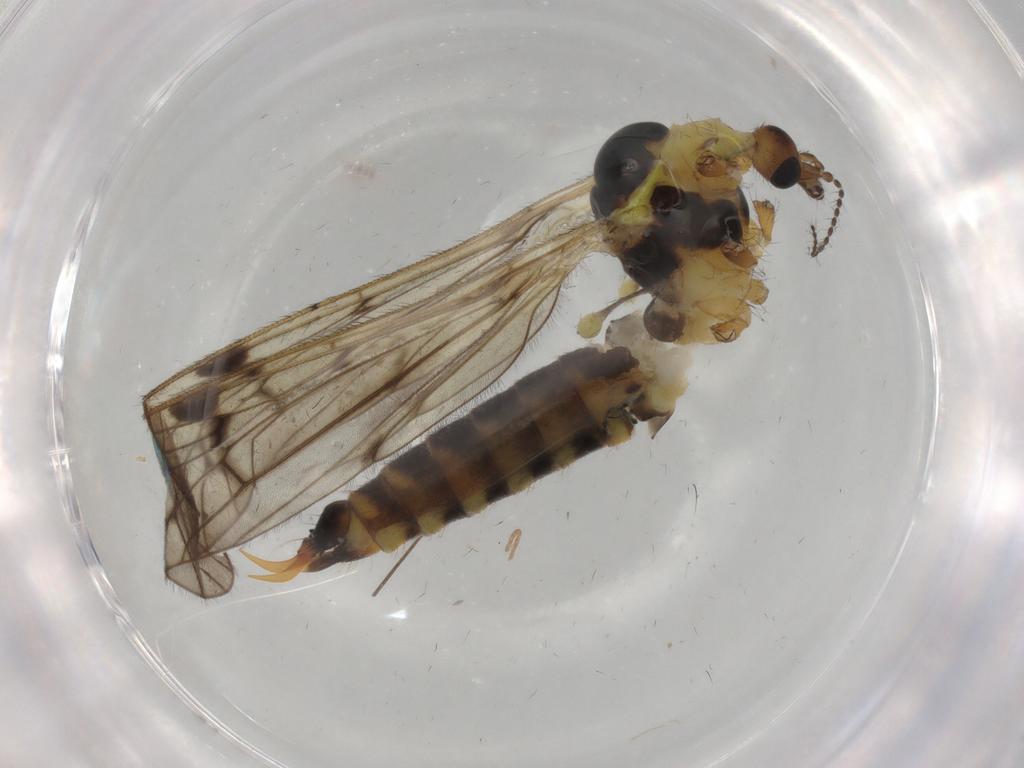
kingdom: Animalia
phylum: Arthropoda
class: Insecta
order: Diptera
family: Limoniidae
